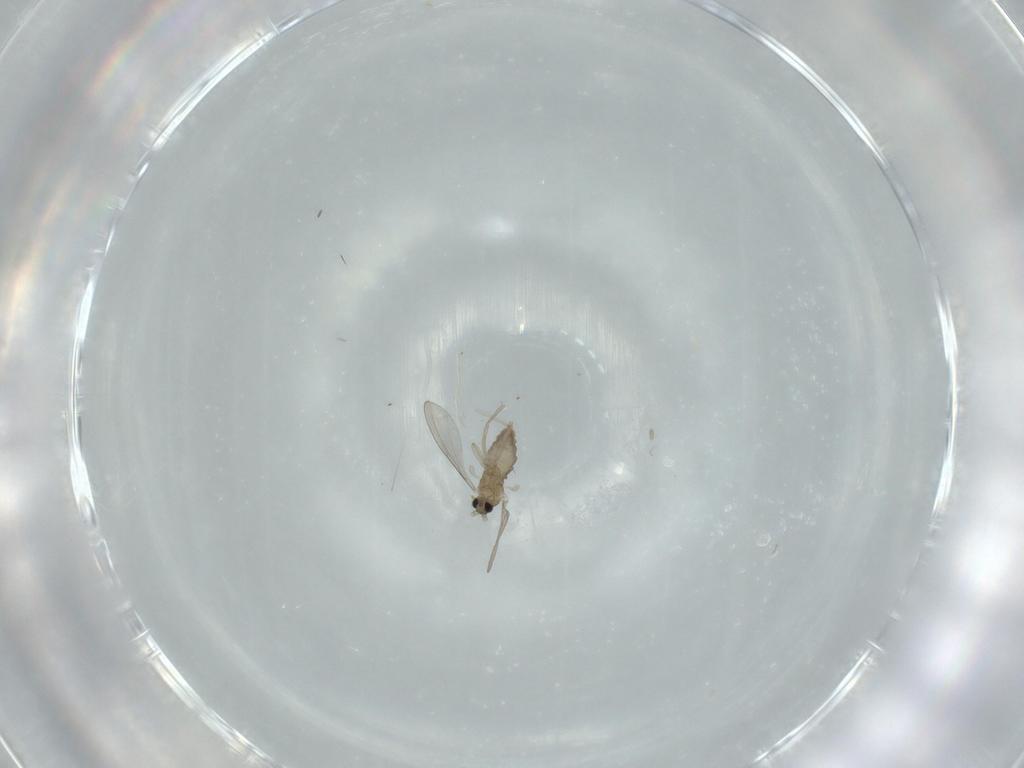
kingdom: Animalia
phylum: Arthropoda
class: Insecta
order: Diptera
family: Cecidomyiidae
